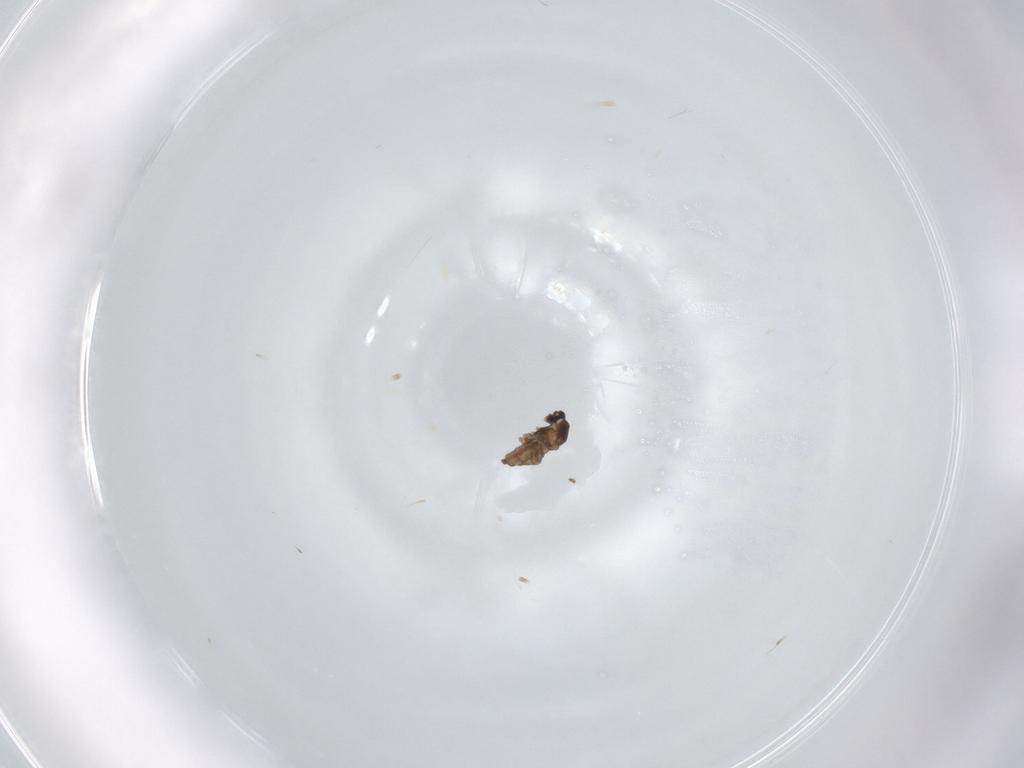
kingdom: Animalia
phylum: Arthropoda
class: Insecta
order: Diptera
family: Cecidomyiidae
